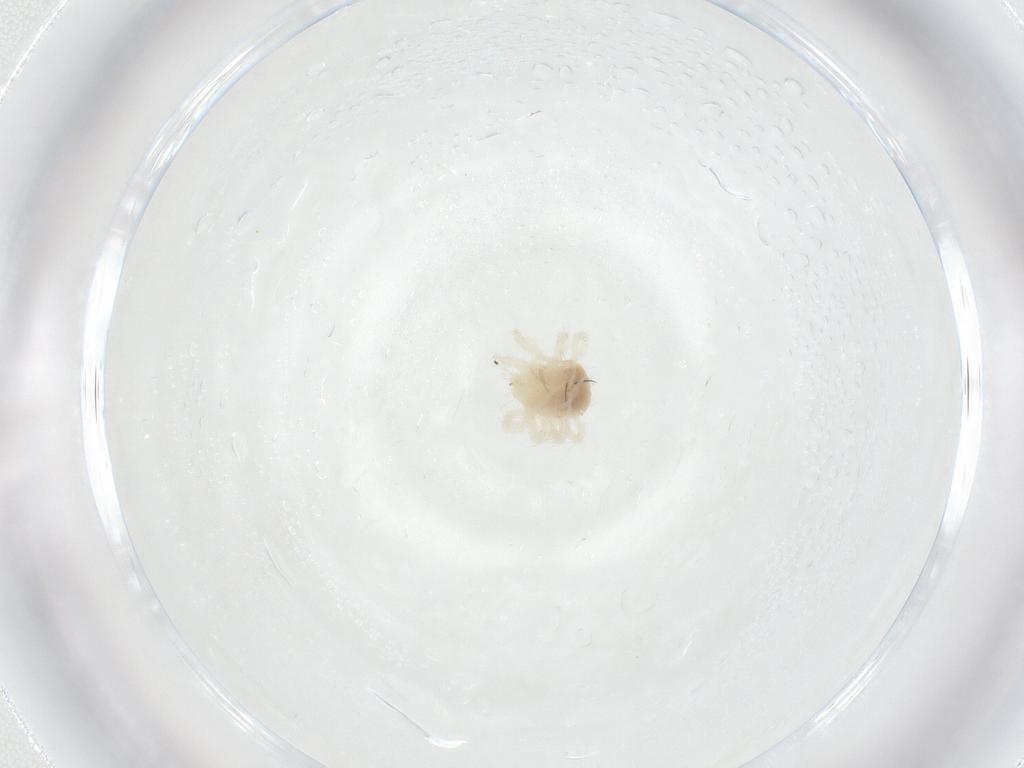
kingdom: Animalia
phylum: Arthropoda
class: Arachnida
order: Trombidiformes
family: Anystidae
